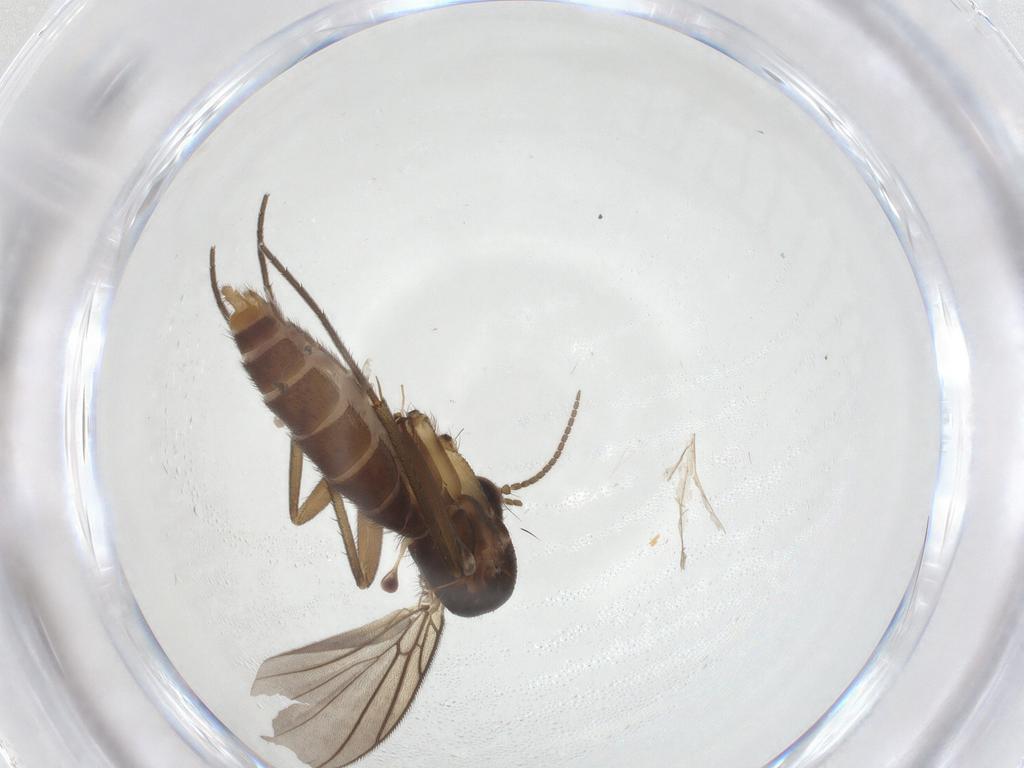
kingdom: Animalia
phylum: Arthropoda
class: Insecta
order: Diptera
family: Mycetophilidae
